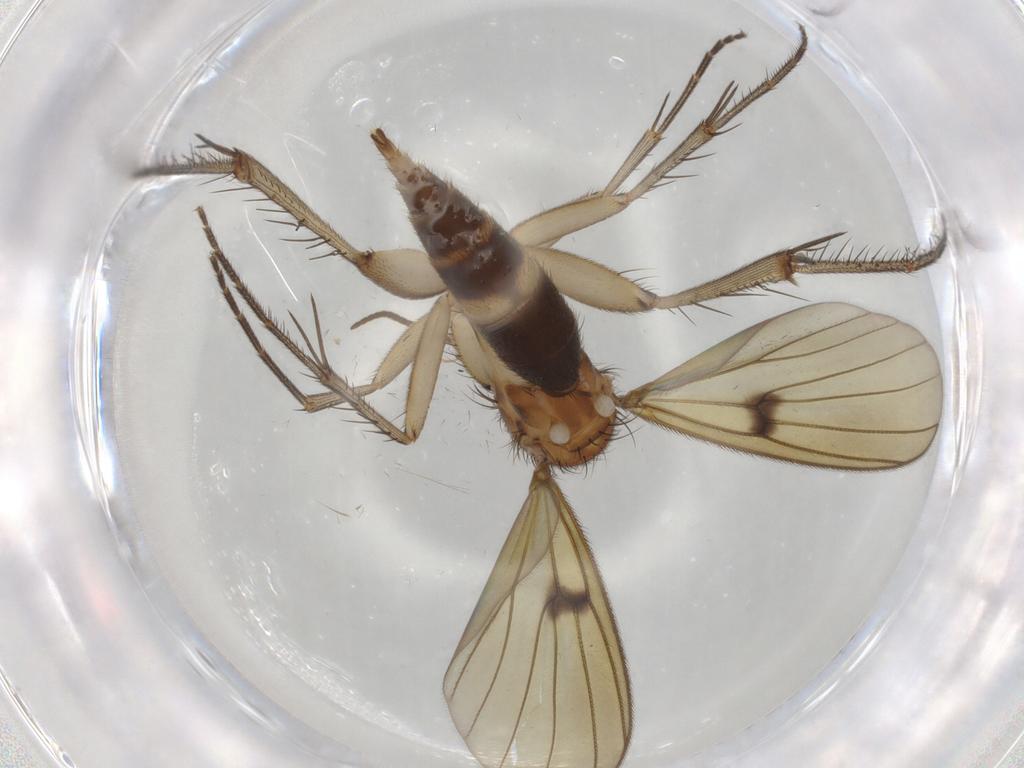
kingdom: Animalia
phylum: Arthropoda
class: Insecta
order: Diptera
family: Mycetophilidae
